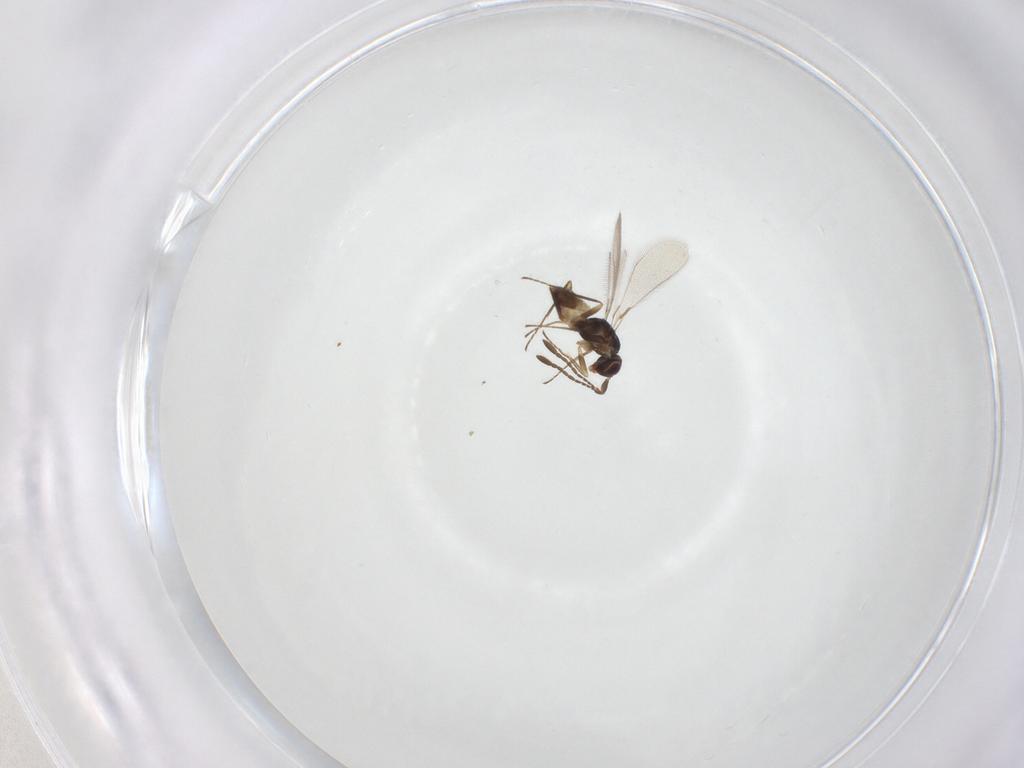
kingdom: Animalia
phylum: Arthropoda
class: Insecta
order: Hymenoptera
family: Mymaridae
